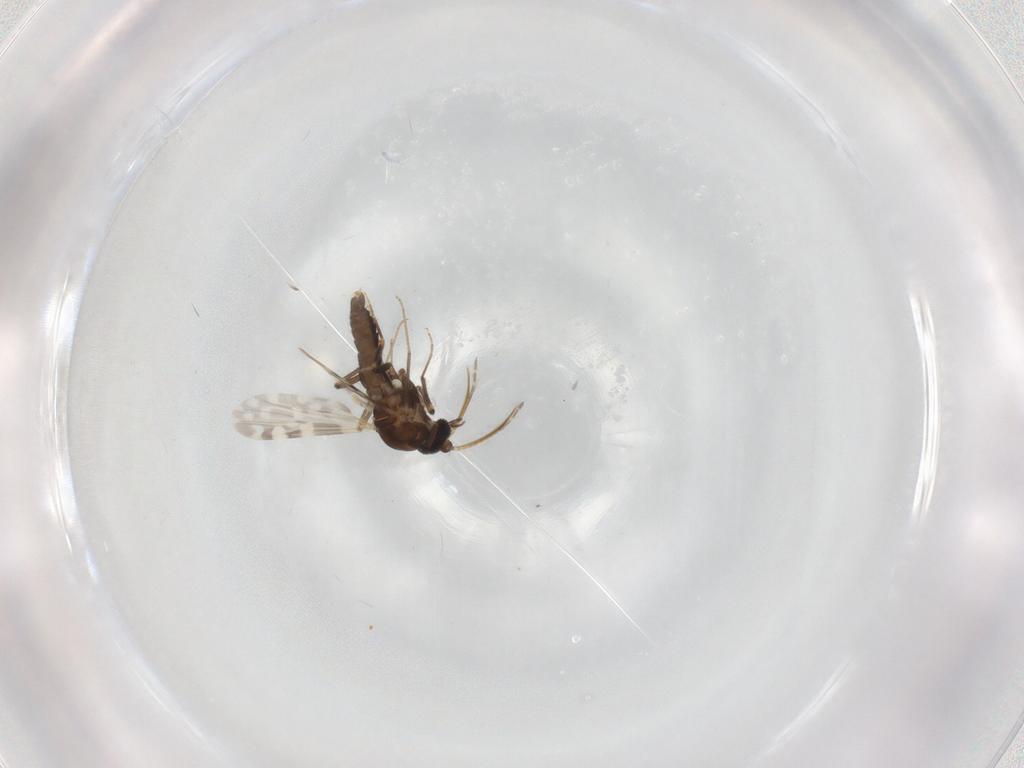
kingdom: Animalia
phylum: Arthropoda
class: Insecta
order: Diptera
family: Ceratopogonidae
